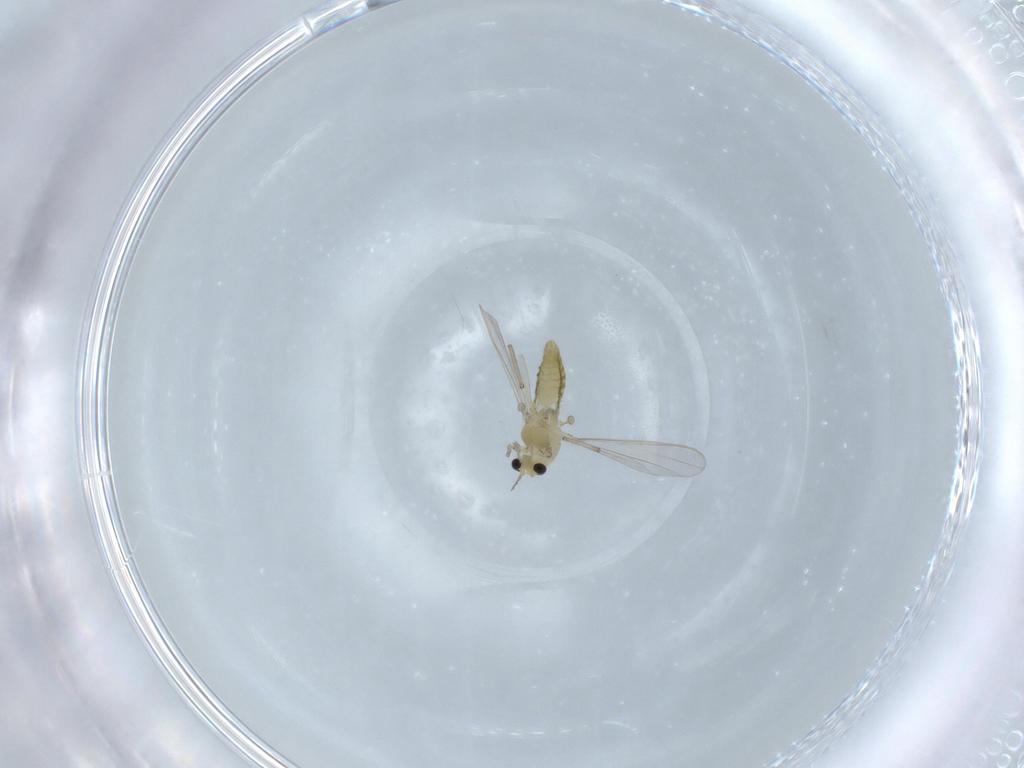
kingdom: Animalia
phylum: Arthropoda
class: Insecta
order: Diptera
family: Chironomidae
